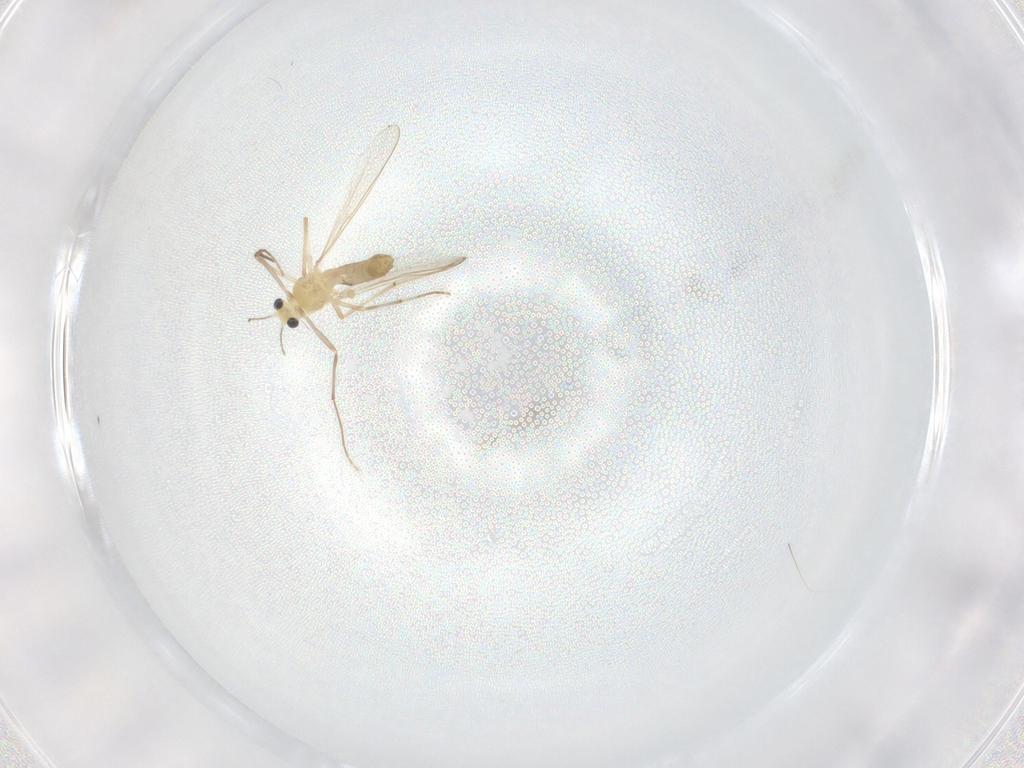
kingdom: Animalia
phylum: Arthropoda
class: Insecta
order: Diptera
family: Chironomidae
